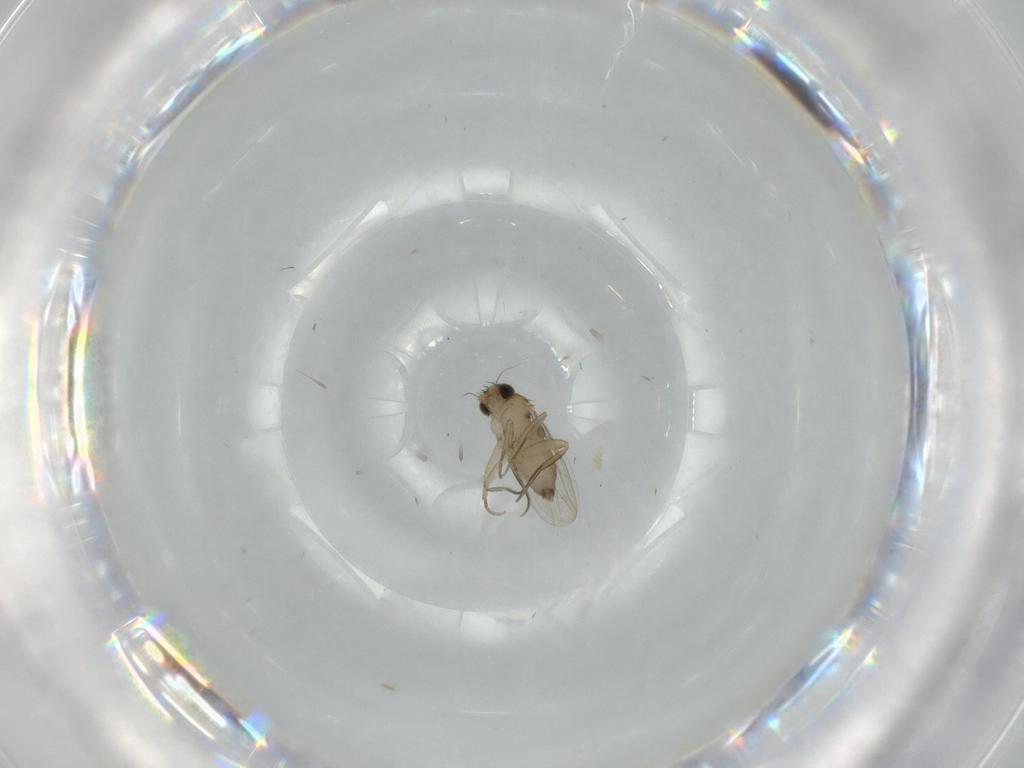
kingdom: Animalia
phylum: Arthropoda
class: Insecta
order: Diptera
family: Phoridae
